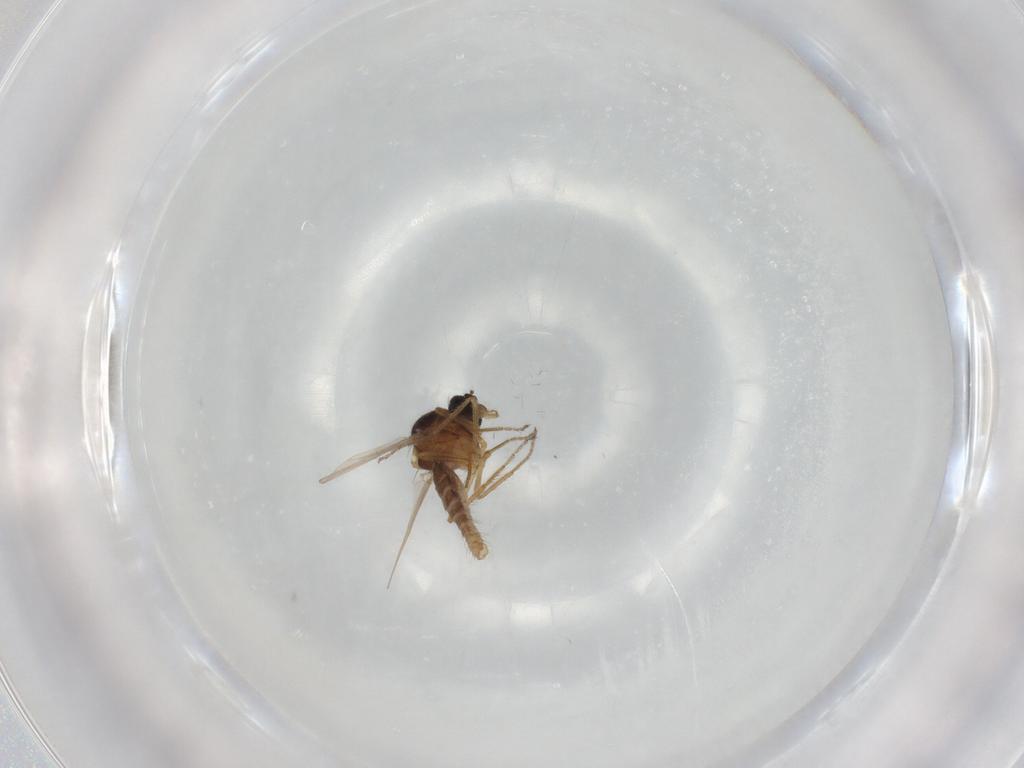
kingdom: Animalia
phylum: Arthropoda
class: Insecta
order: Diptera
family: Ceratopogonidae
